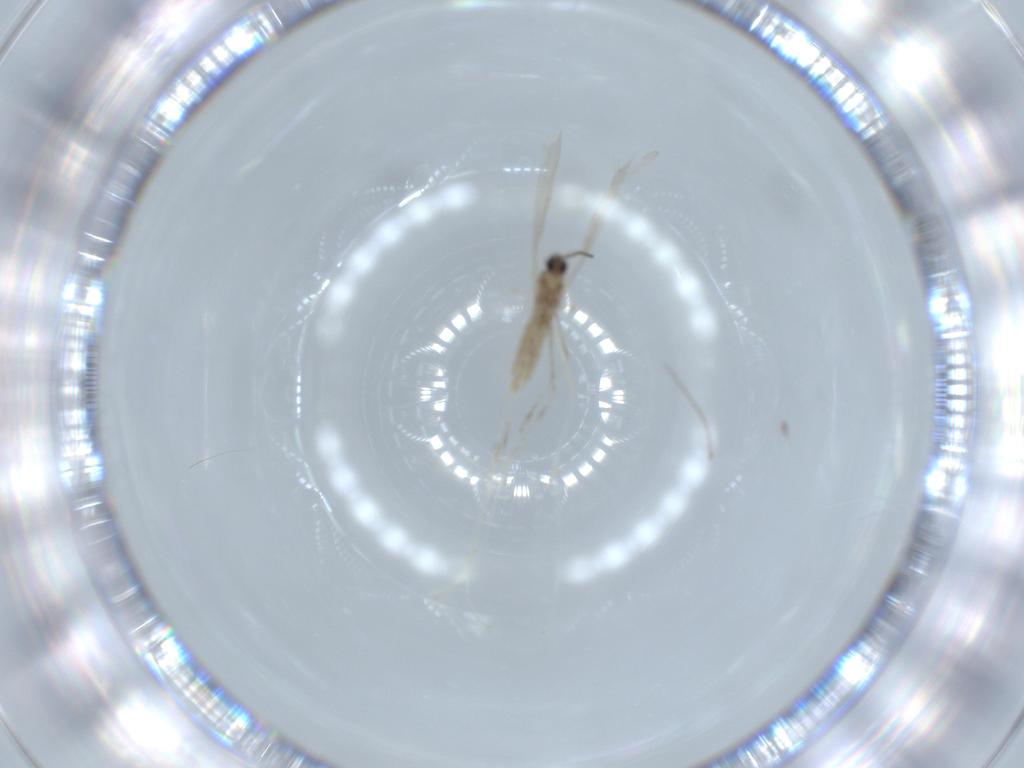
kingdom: Animalia
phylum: Arthropoda
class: Insecta
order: Diptera
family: Cecidomyiidae
